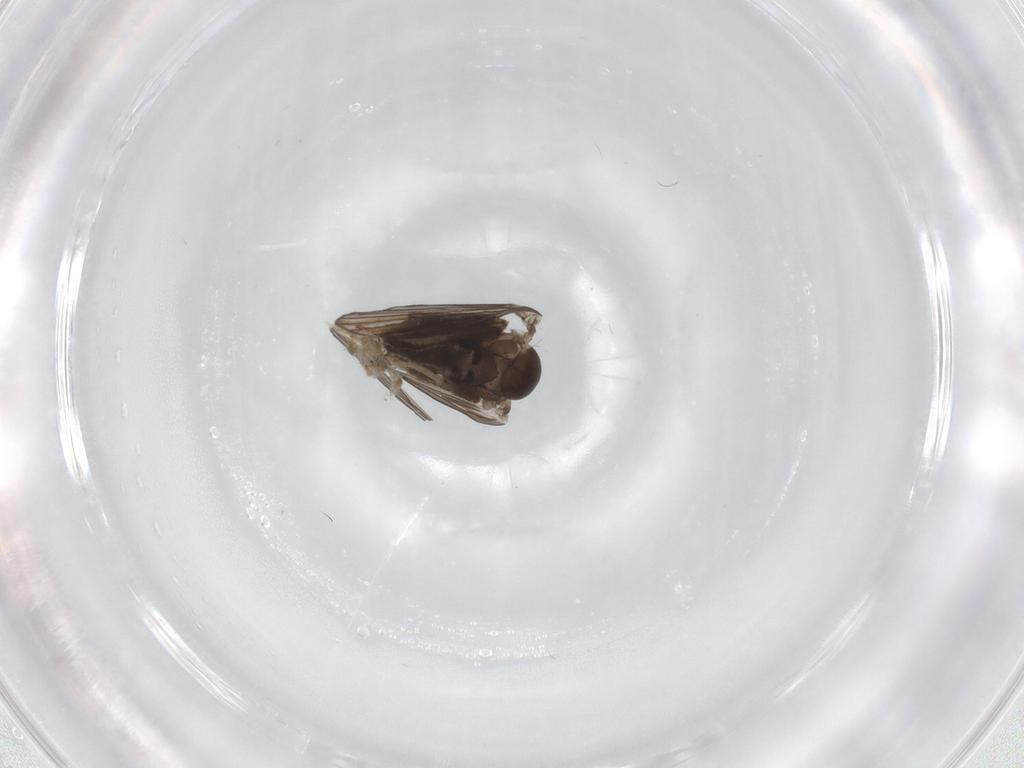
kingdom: Animalia
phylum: Arthropoda
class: Insecta
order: Diptera
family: Psychodidae
